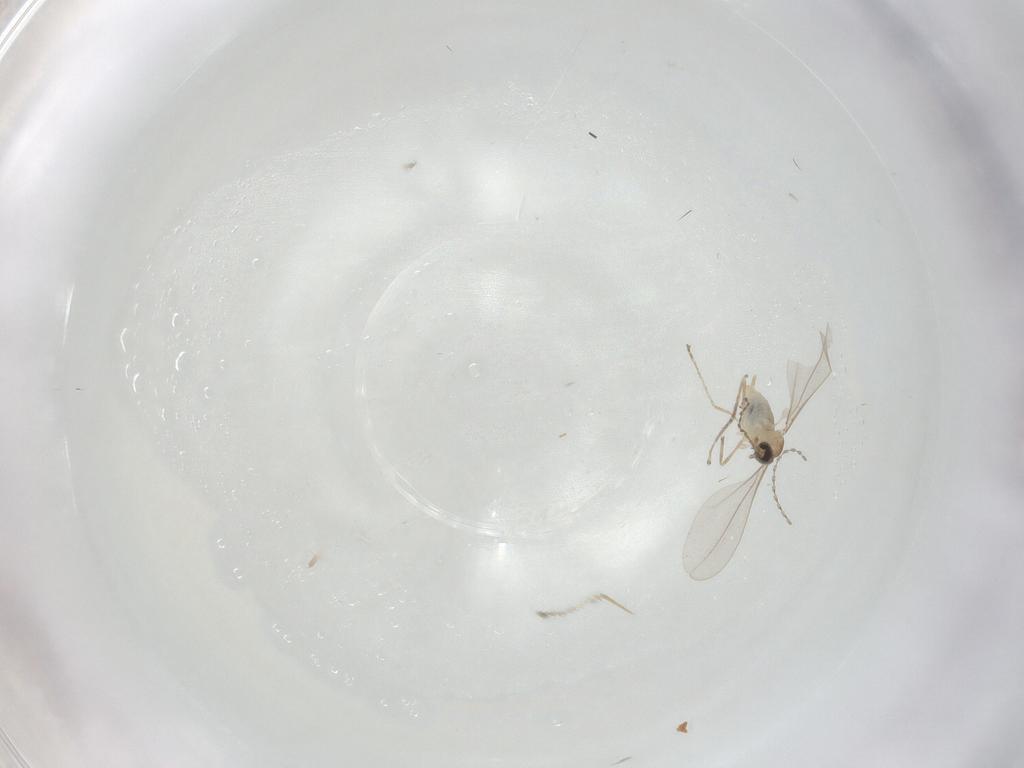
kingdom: Animalia
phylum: Arthropoda
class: Insecta
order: Diptera
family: Cecidomyiidae
